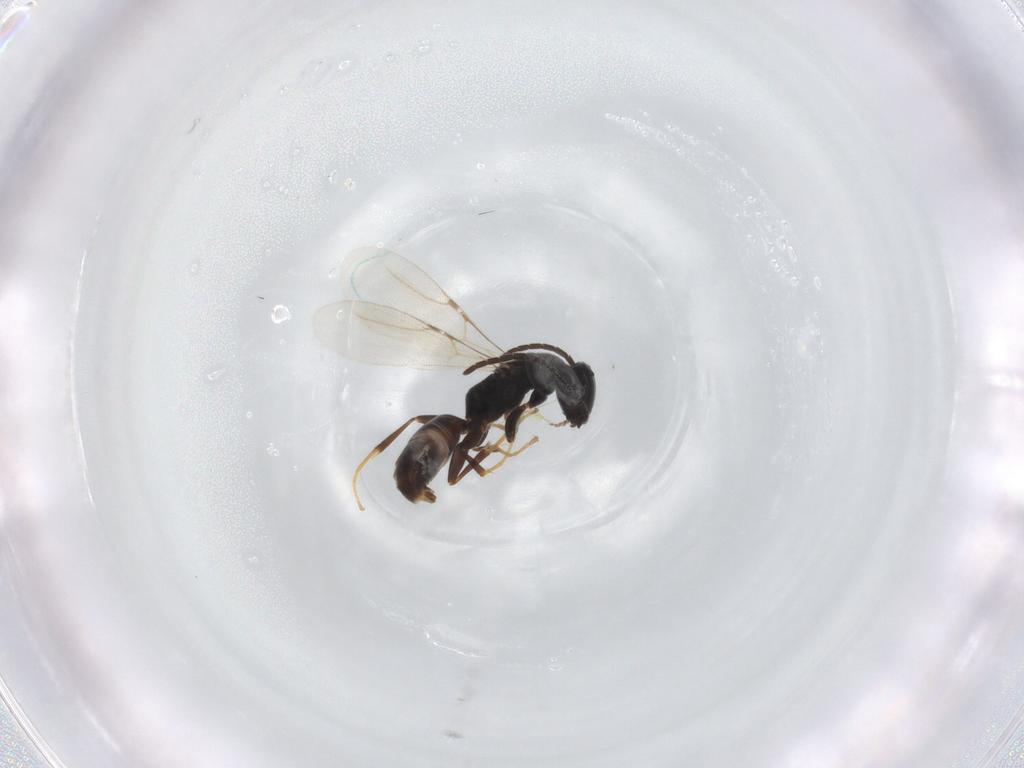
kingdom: Animalia
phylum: Arthropoda
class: Insecta
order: Hymenoptera
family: Bethylidae
